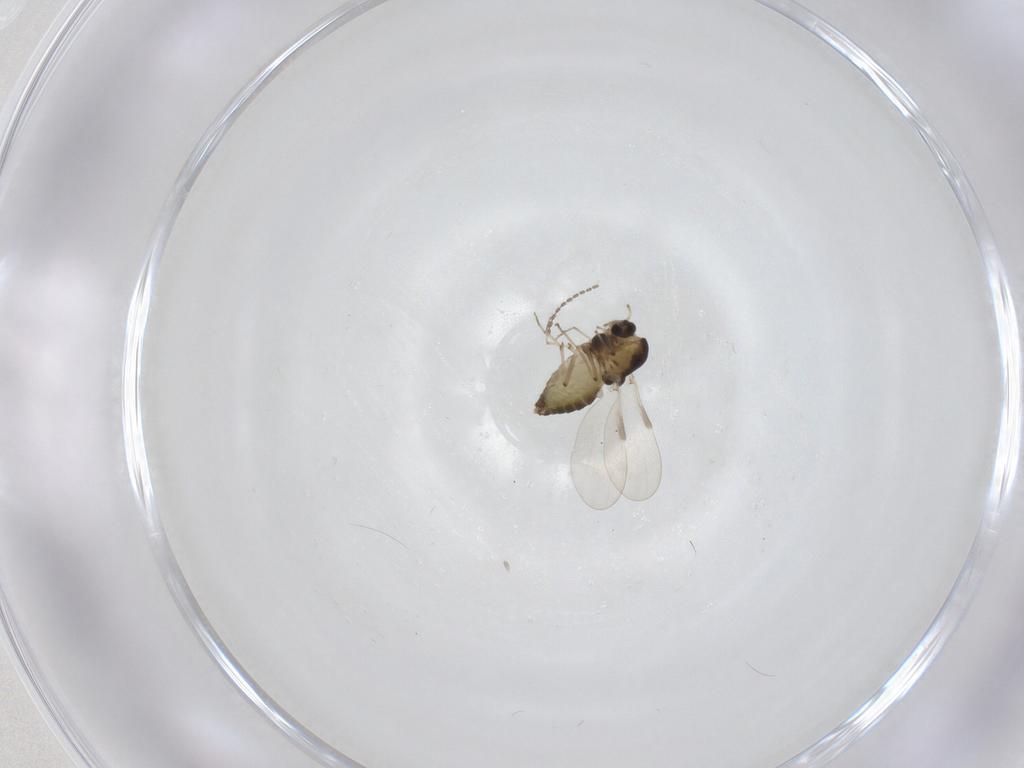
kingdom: Animalia
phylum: Arthropoda
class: Insecta
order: Diptera
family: Chironomidae
